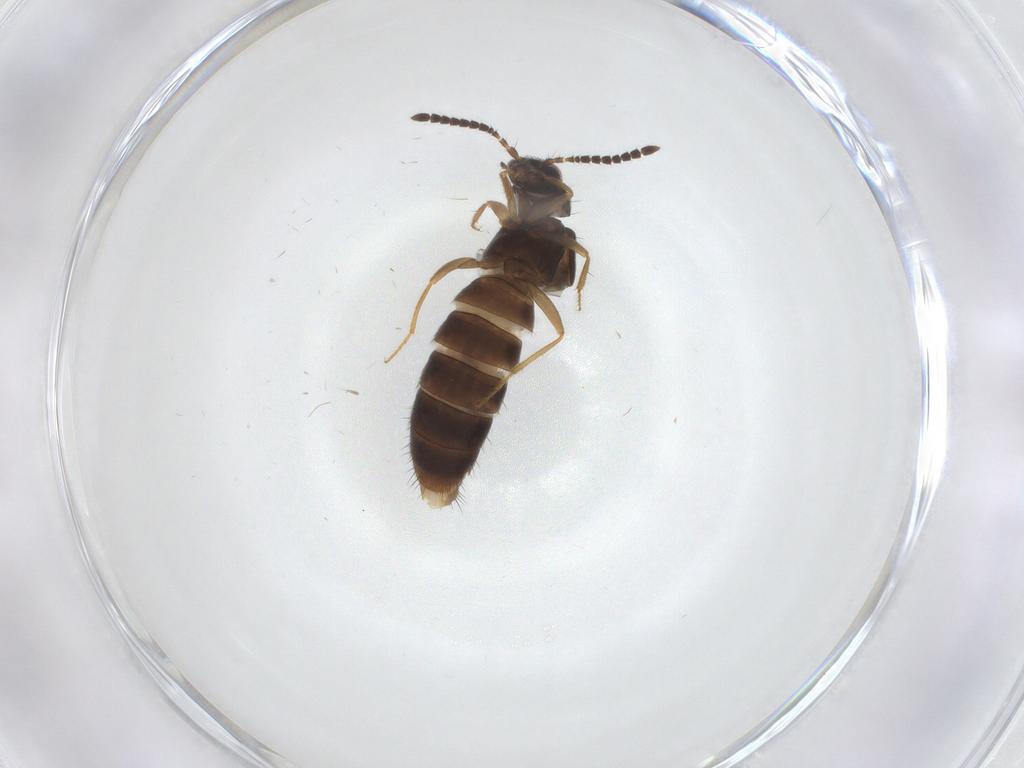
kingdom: Animalia
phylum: Arthropoda
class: Insecta
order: Coleoptera
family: Staphylinidae
